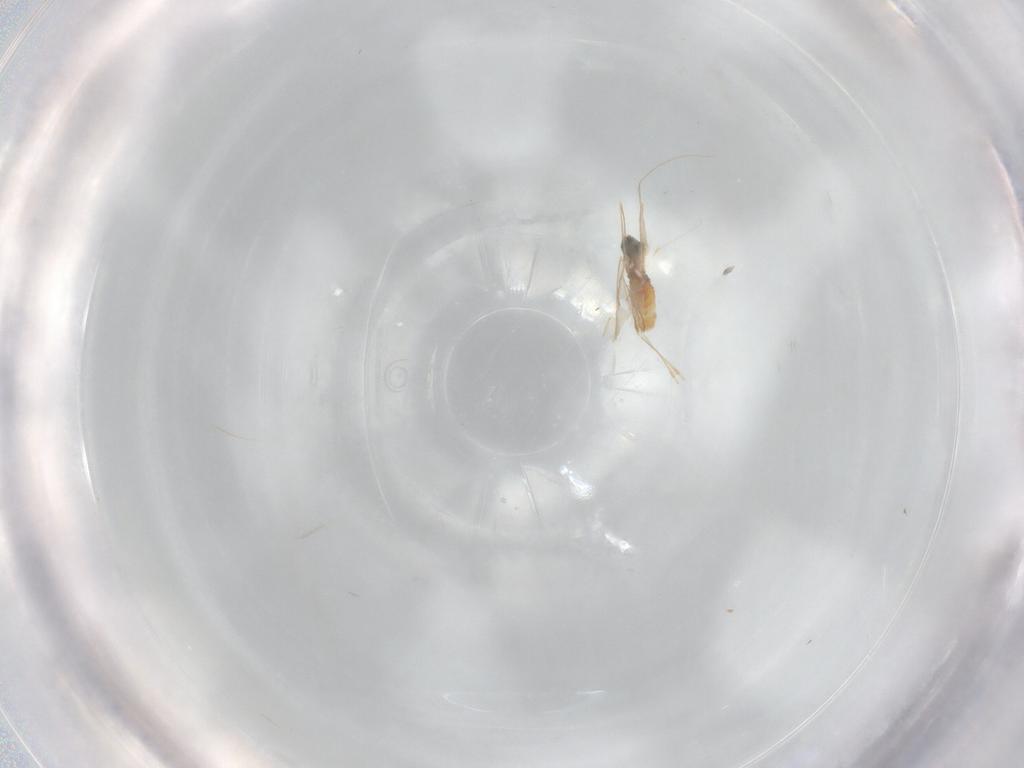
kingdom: Animalia
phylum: Arthropoda
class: Insecta
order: Diptera
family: Cecidomyiidae
